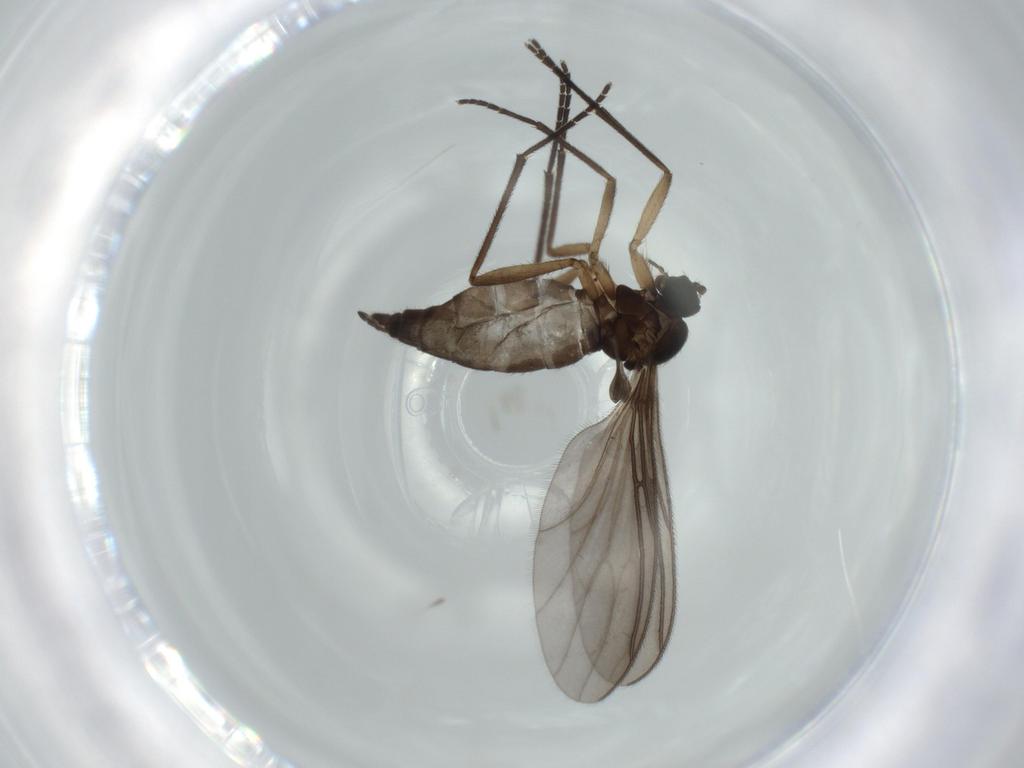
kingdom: Animalia
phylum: Arthropoda
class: Insecta
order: Diptera
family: Sciaridae
